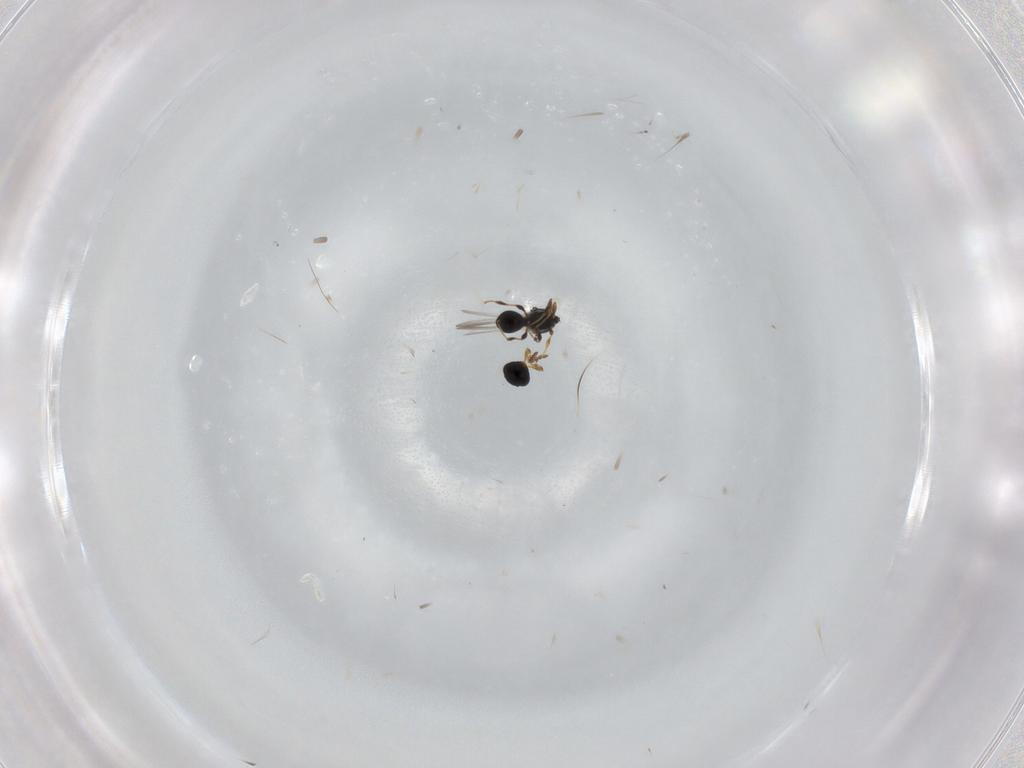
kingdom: Animalia
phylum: Arthropoda
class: Insecta
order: Hymenoptera
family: Platygastridae
